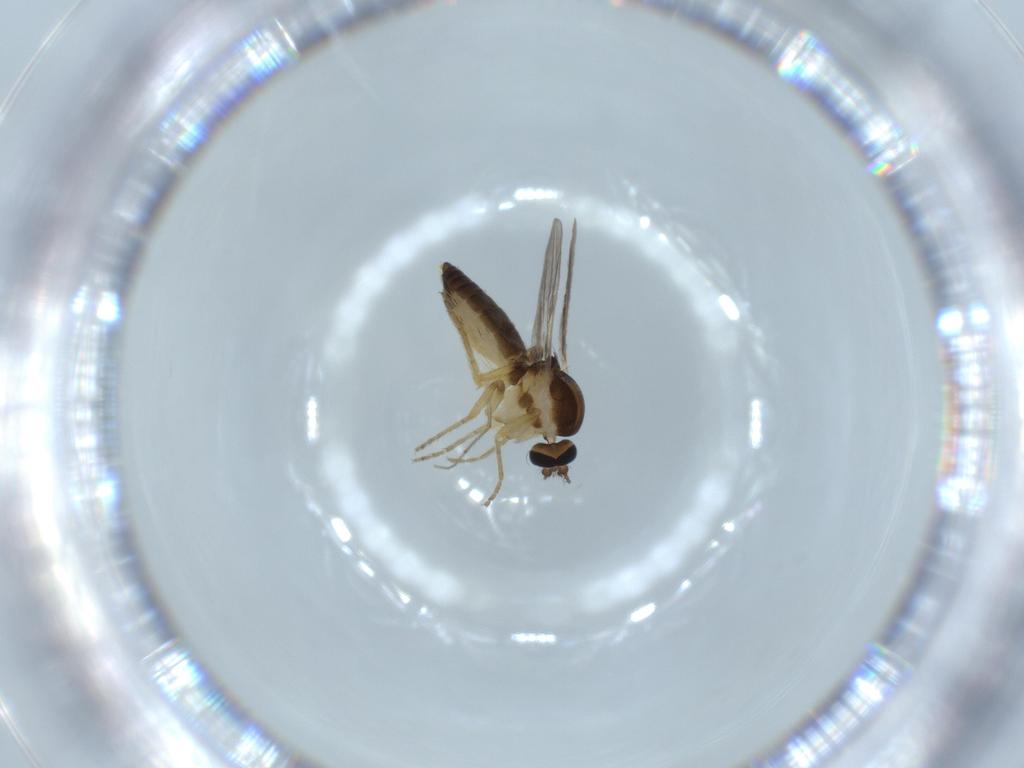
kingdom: Animalia
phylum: Arthropoda
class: Insecta
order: Diptera
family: Ceratopogonidae
